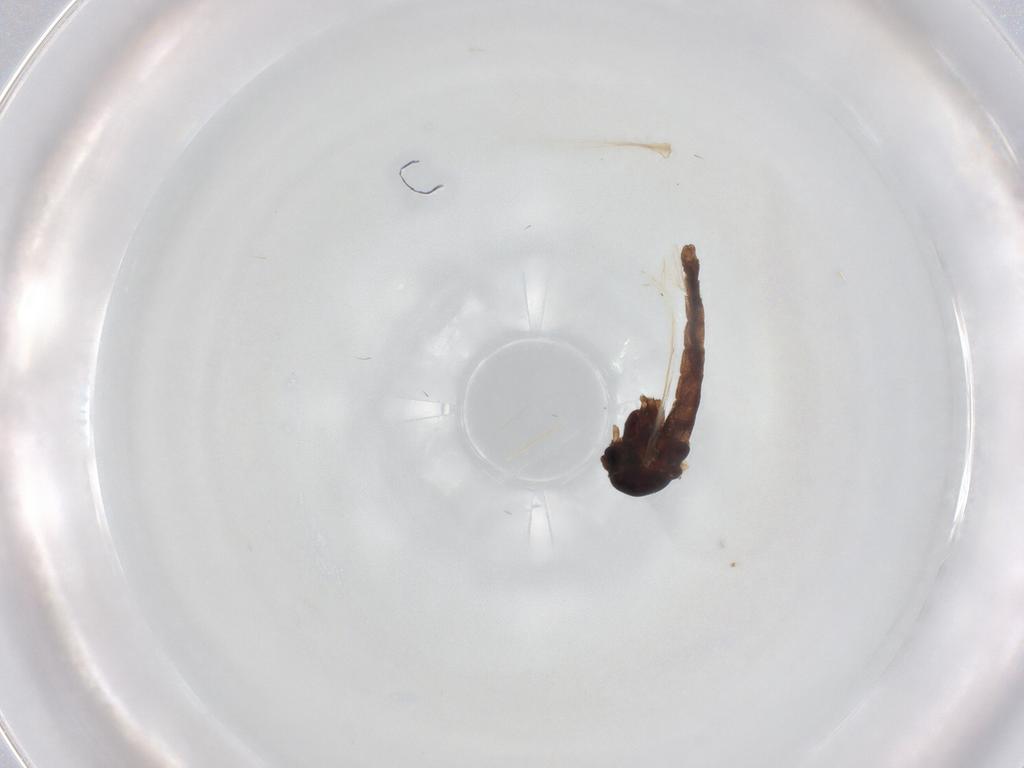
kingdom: Animalia
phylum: Arthropoda
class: Insecta
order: Diptera
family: Cecidomyiidae
